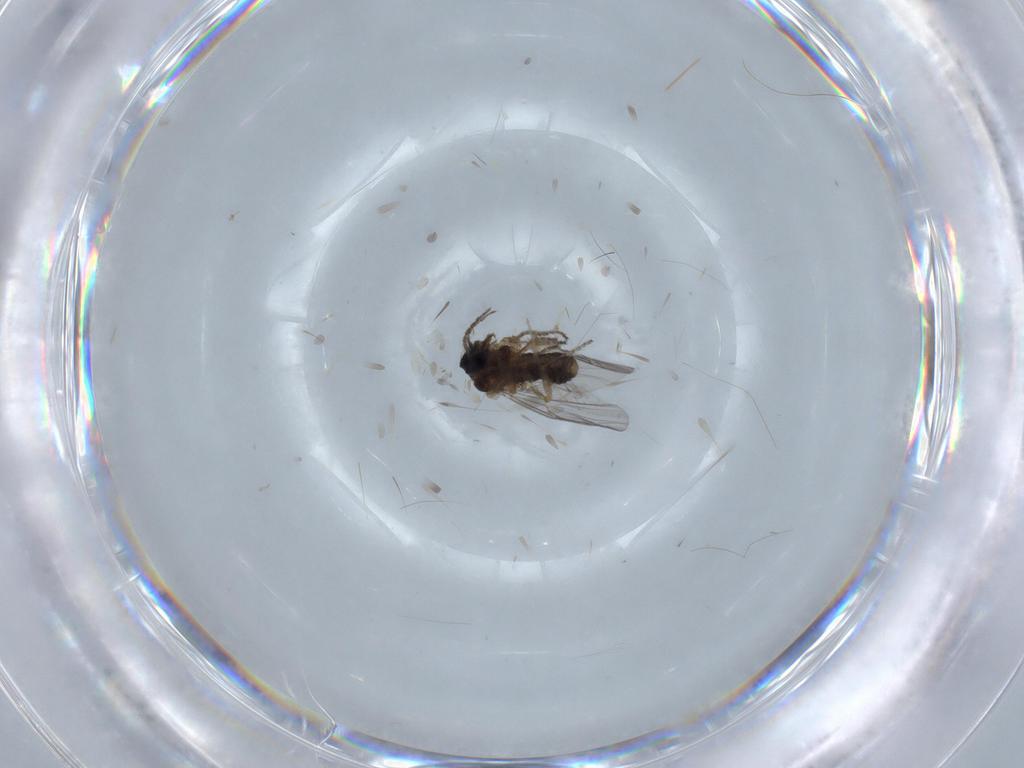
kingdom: Animalia
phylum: Arthropoda
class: Insecta
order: Diptera
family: Ceratopogonidae
